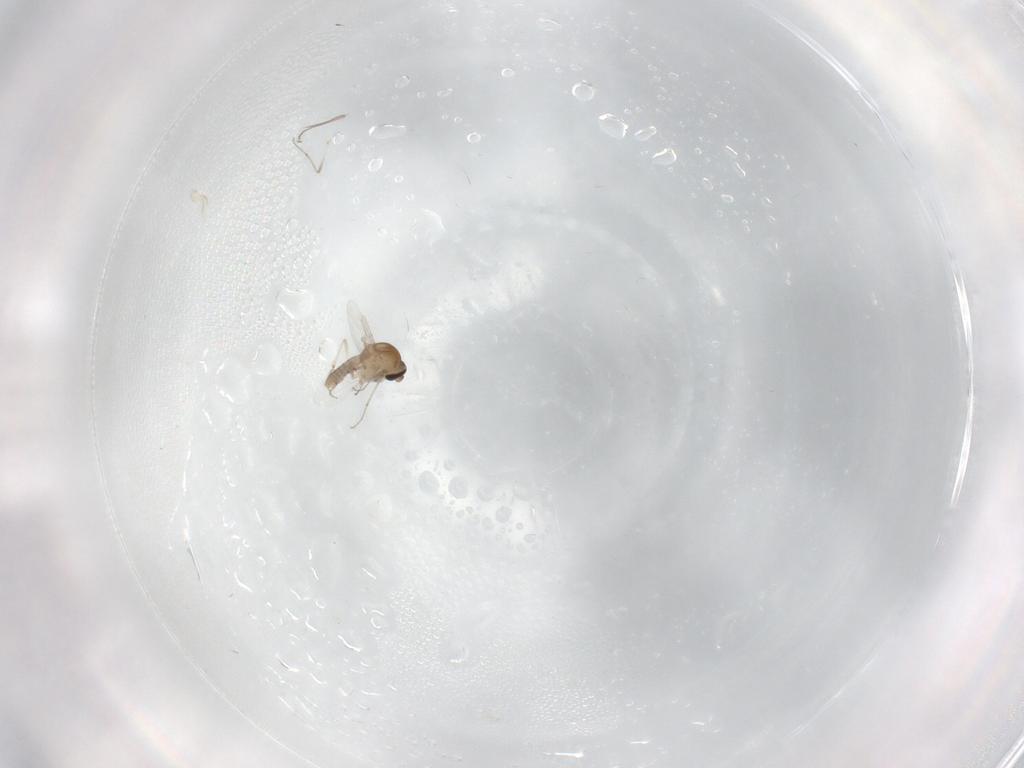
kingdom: Animalia
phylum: Arthropoda
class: Insecta
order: Diptera
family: Ceratopogonidae
